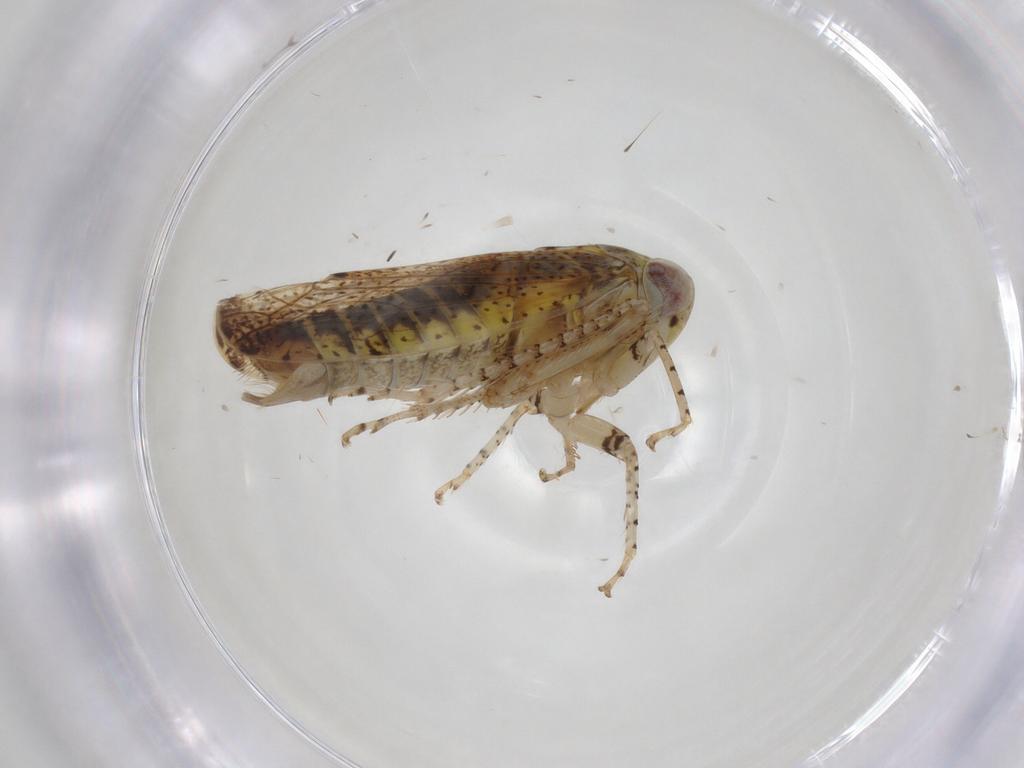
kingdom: Animalia
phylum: Arthropoda
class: Insecta
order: Hemiptera
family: Cicadellidae
